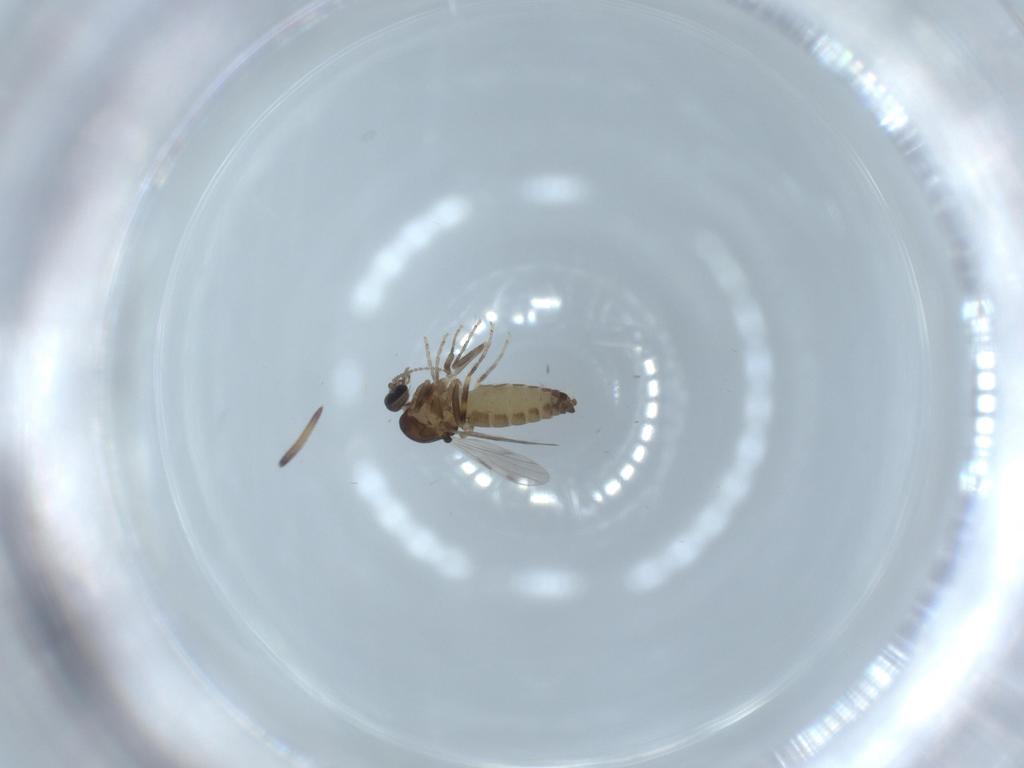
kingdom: Animalia
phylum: Arthropoda
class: Insecta
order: Diptera
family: Ceratopogonidae
